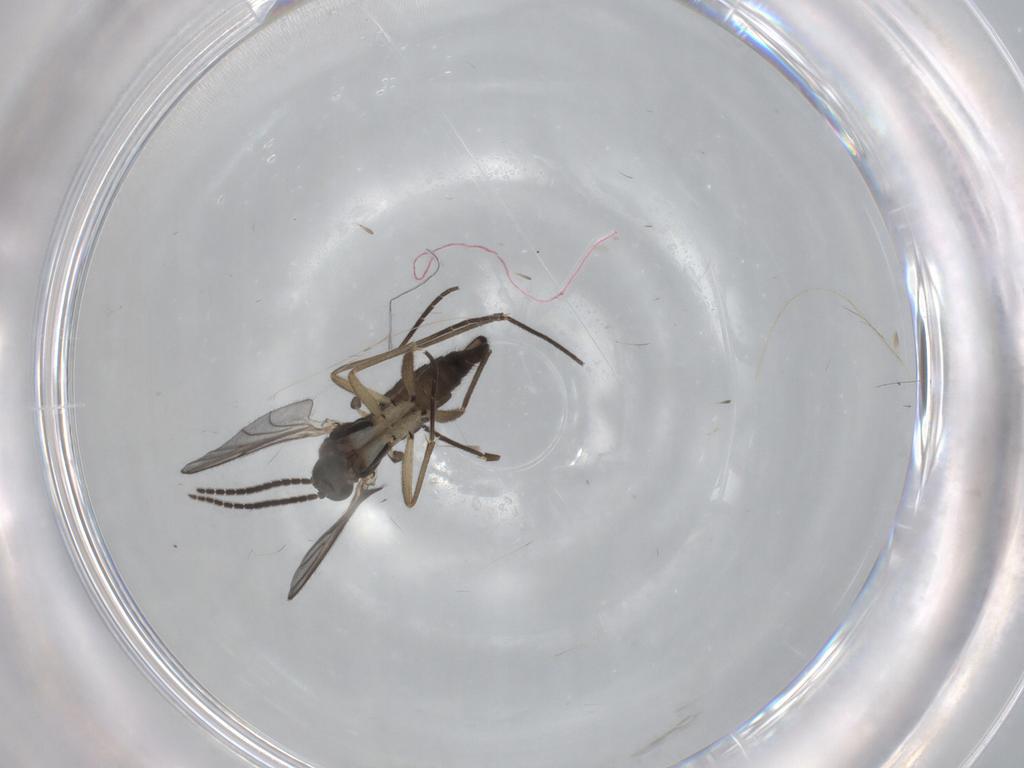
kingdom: Animalia
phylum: Arthropoda
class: Insecta
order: Diptera
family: Sciaridae
